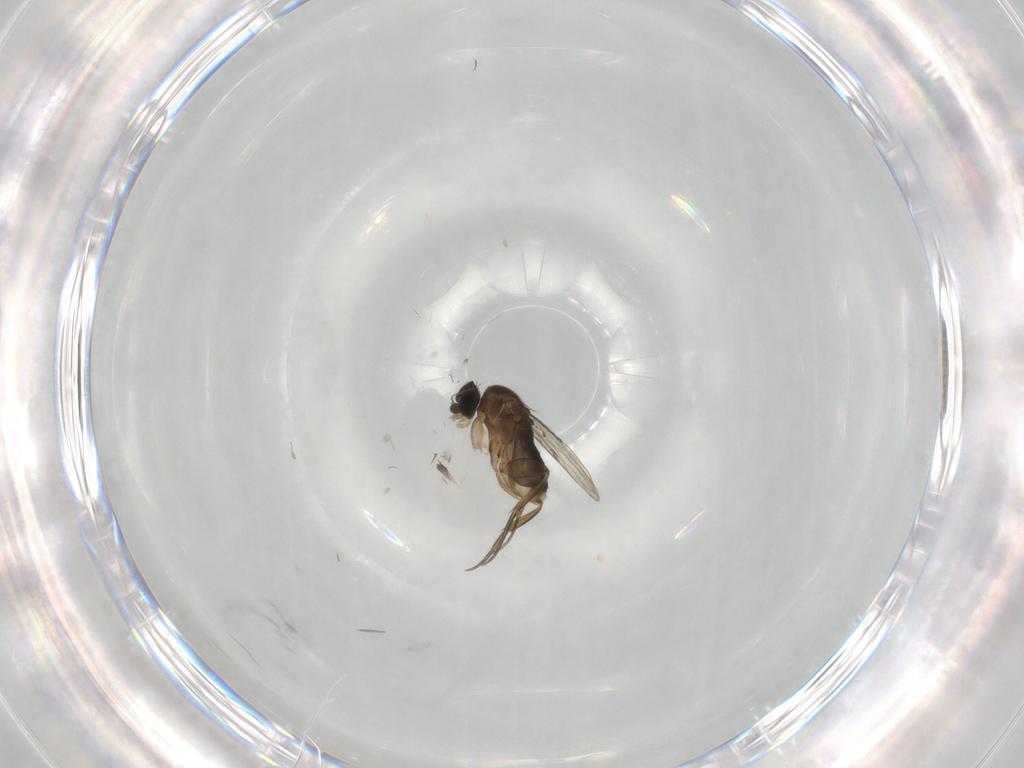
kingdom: Animalia
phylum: Arthropoda
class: Insecta
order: Diptera
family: Phoridae
